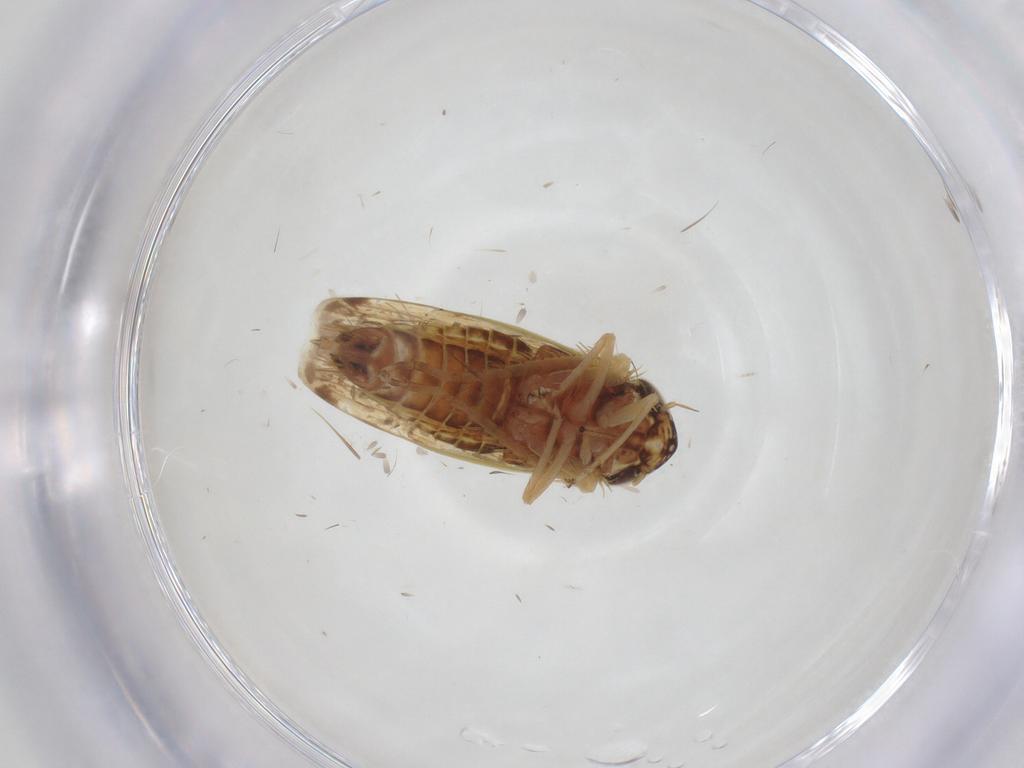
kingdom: Animalia
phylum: Arthropoda
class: Insecta
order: Hemiptera
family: Cicadellidae
